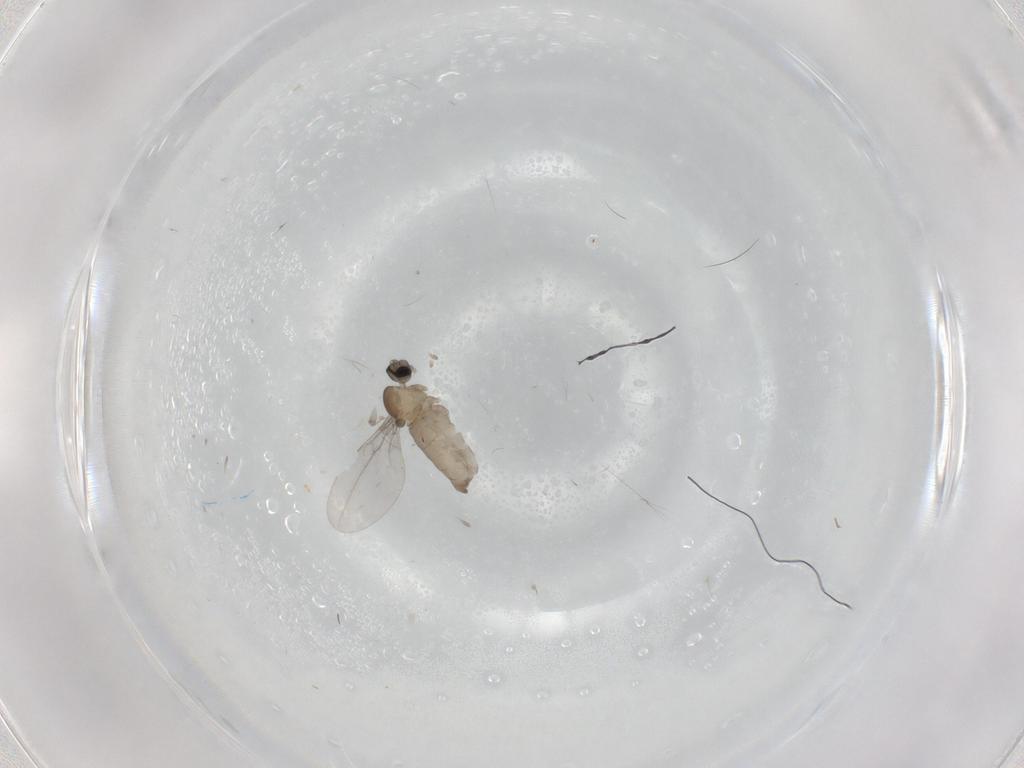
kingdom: Animalia
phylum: Arthropoda
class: Insecta
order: Diptera
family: Cecidomyiidae
